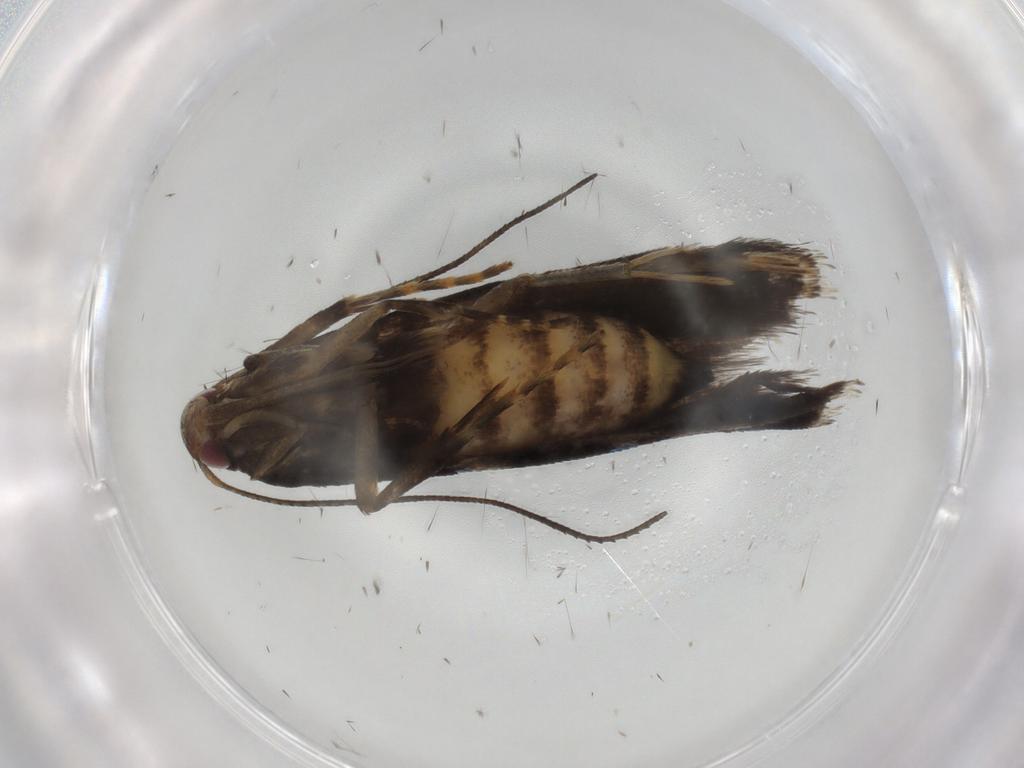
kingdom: Animalia
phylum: Arthropoda
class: Insecta
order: Lepidoptera
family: Gelechiidae
